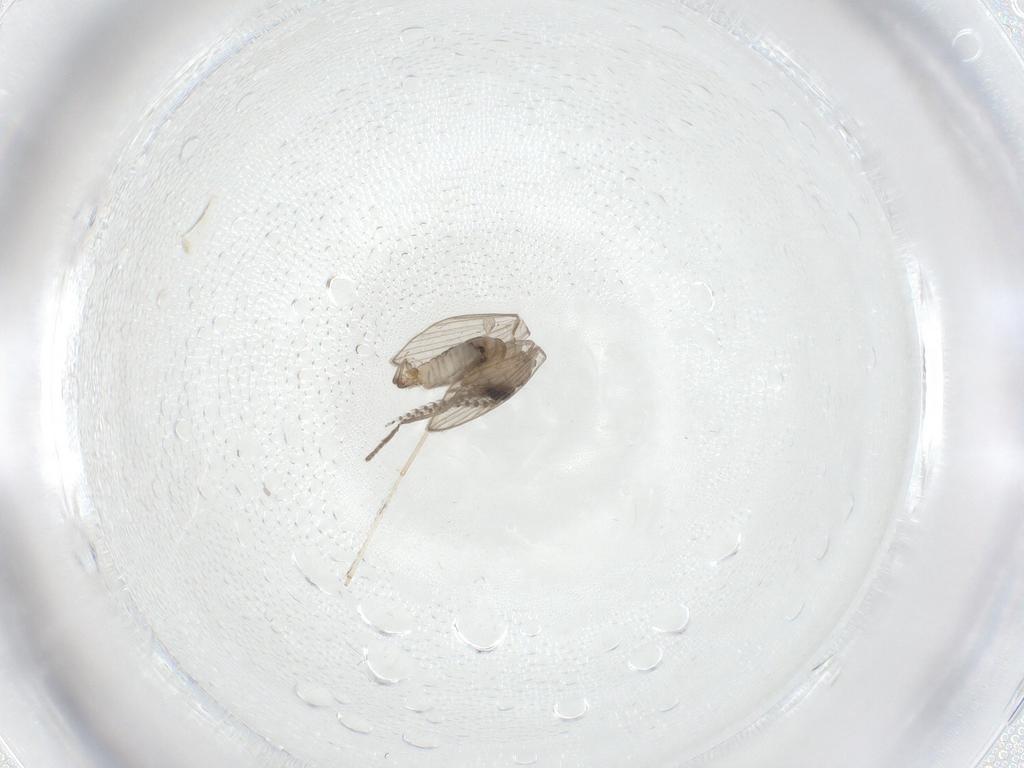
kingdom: Animalia
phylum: Arthropoda
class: Insecta
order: Diptera
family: Psychodidae
